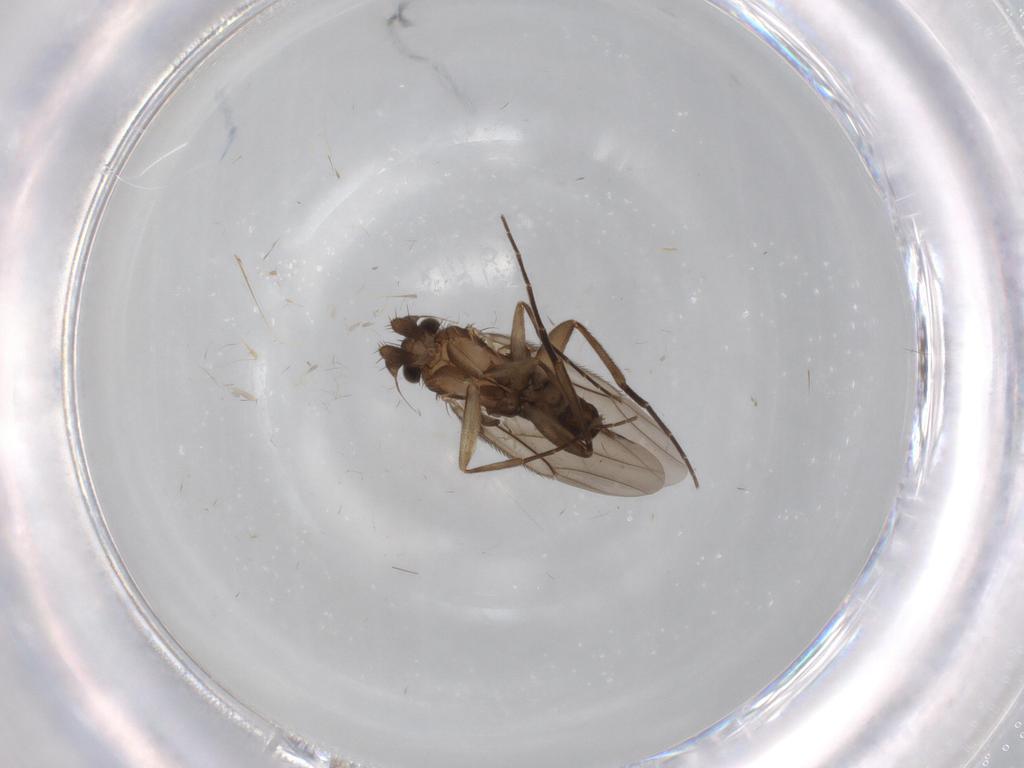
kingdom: Animalia
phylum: Arthropoda
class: Insecta
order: Diptera
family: Phoridae
